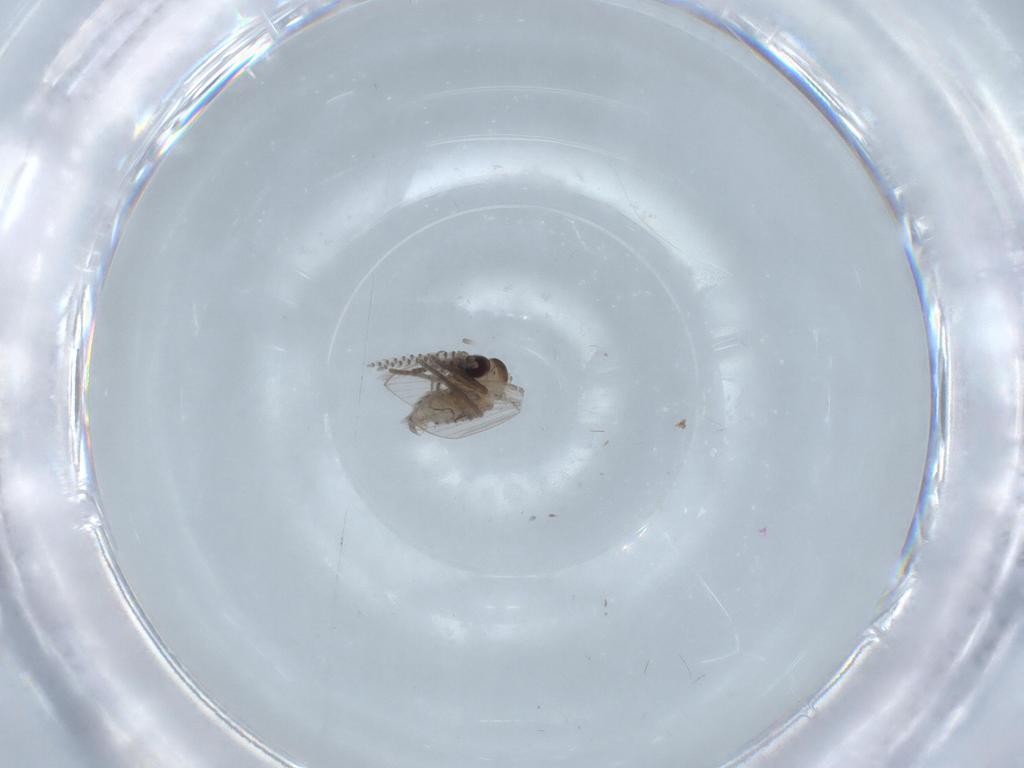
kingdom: Animalia
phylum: Arthropoda
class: Insecta
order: Diptera
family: Psychodidae
